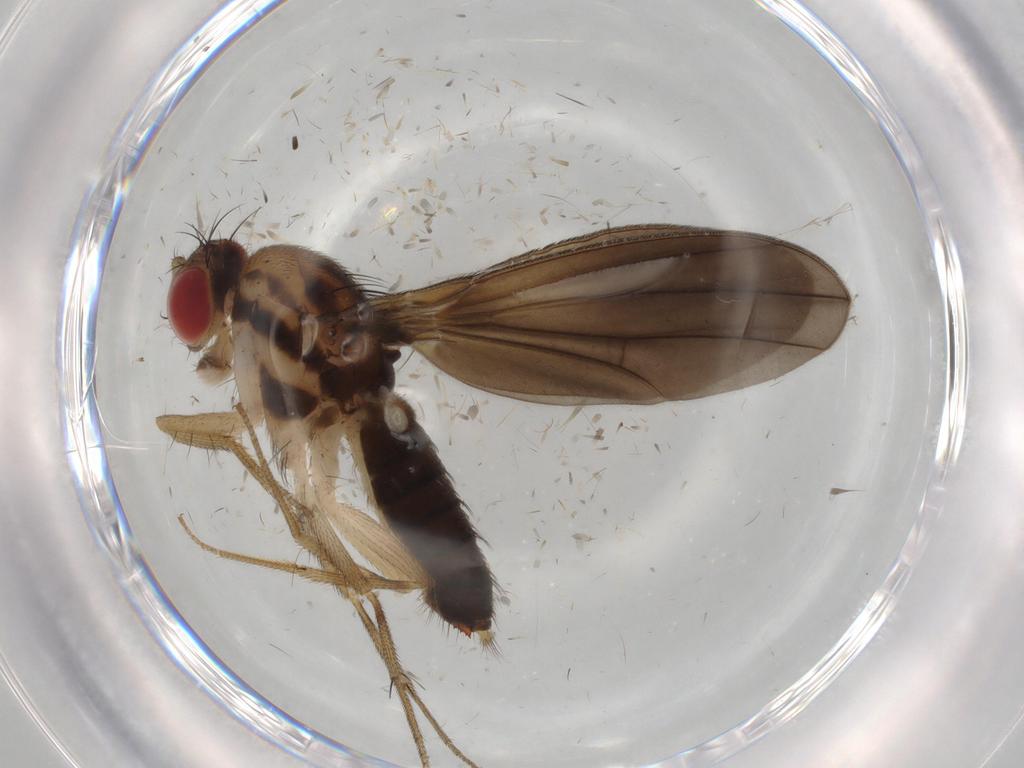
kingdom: Animalia
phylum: Arthropoda
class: Insecta
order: Diptera
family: Drosophilidae
